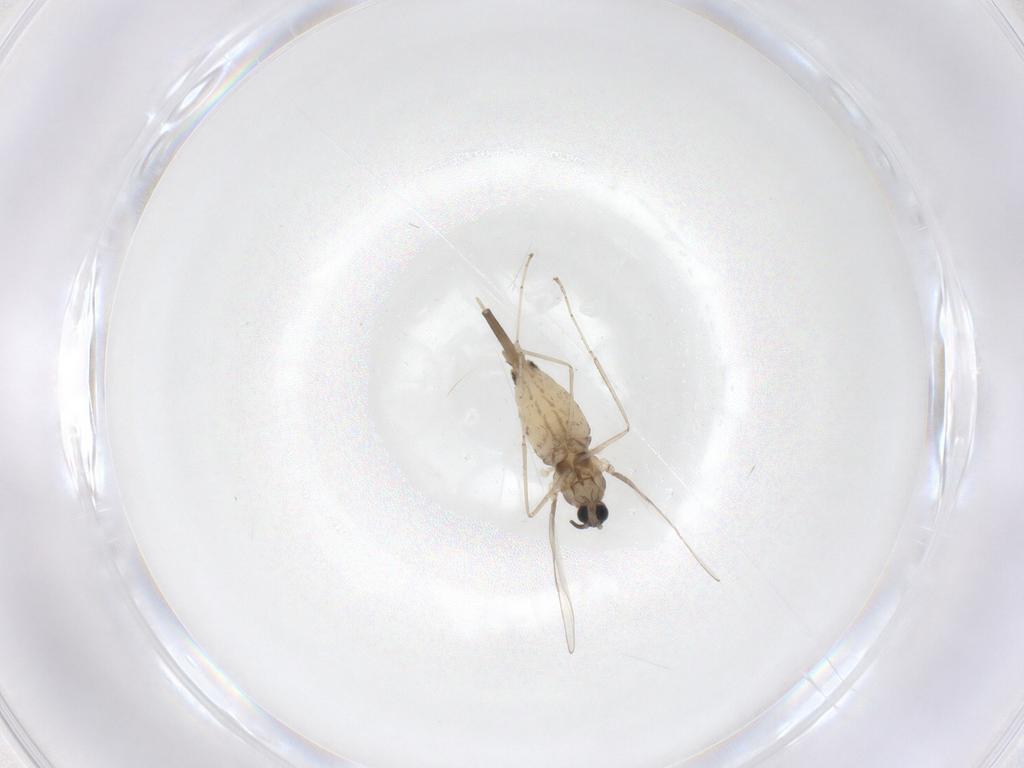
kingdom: Animalia
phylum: Arthropoda
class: Insecta
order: Diptera
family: Cecidomyiidae
